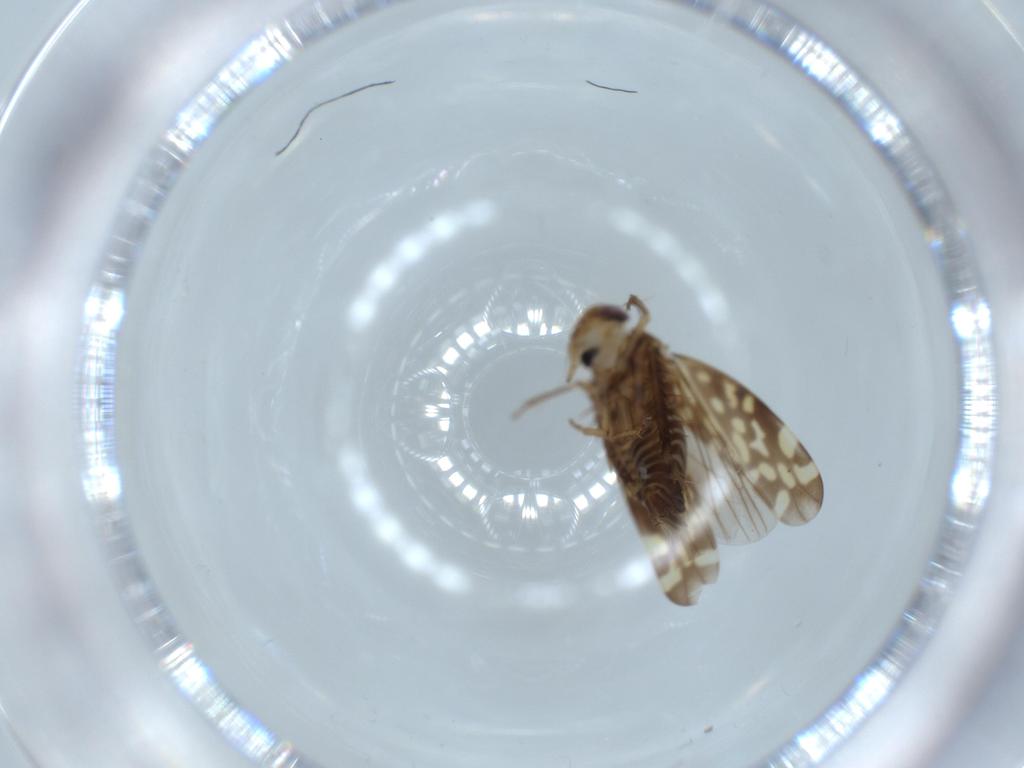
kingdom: Animalia
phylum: Arthropoda
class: Insecta
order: Hemiptera
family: Cicadellidae
